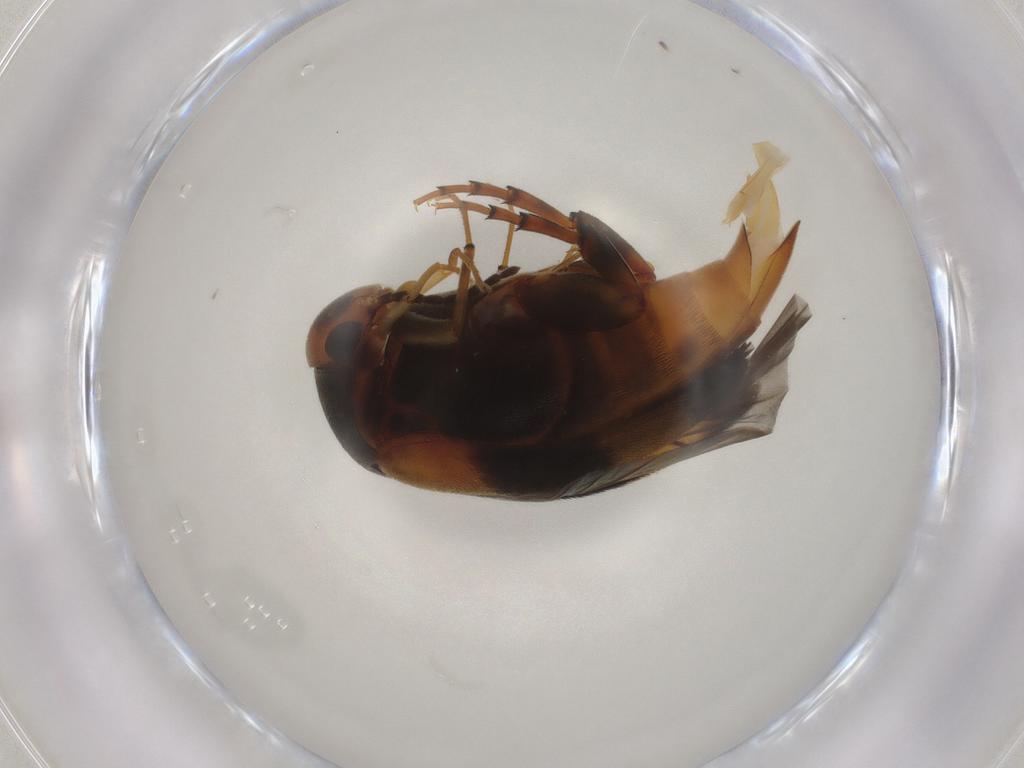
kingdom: Animalia
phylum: Arthropoda
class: Insecta
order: Coleoptera
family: Mordellidae
